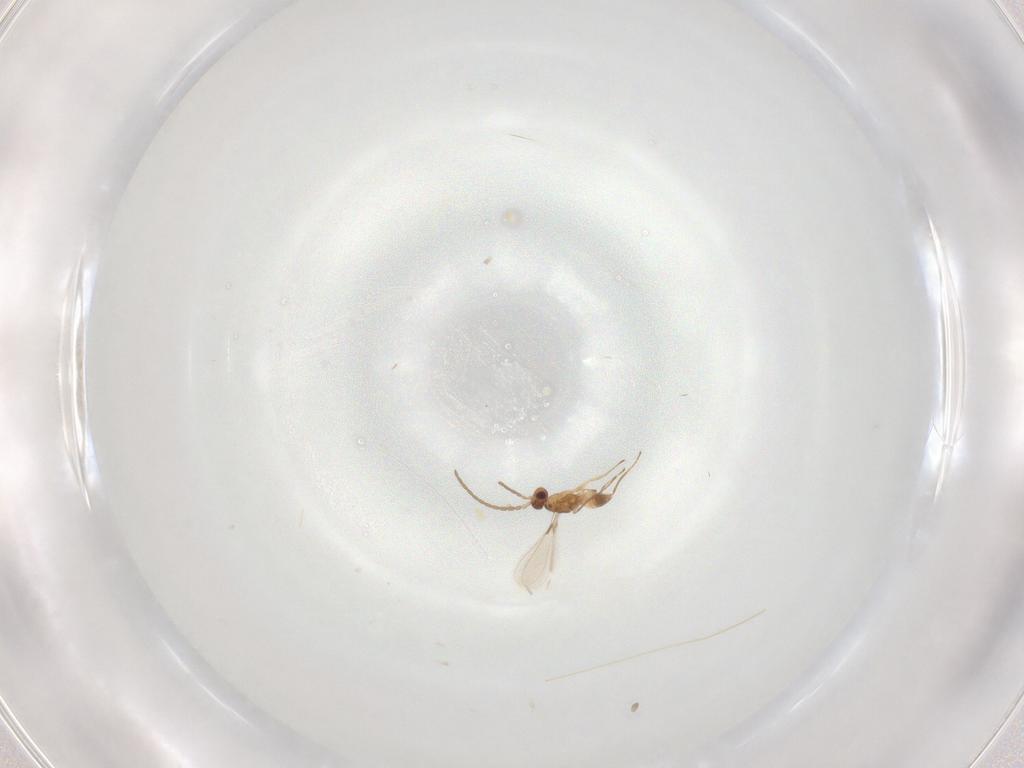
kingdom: Animalia
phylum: Arthropoda
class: Insecta
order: Hymenoptera
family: Mymaridae
